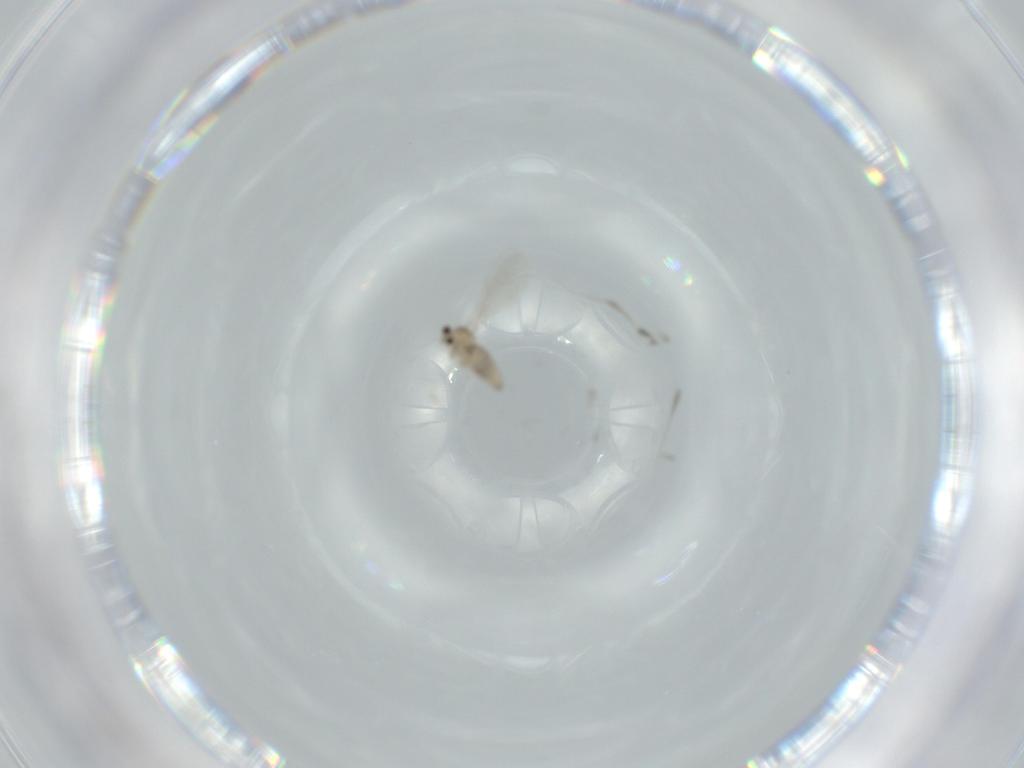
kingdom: Animalia
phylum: Arthropoda
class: Insecta
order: Diptera
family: Cecidomyiidae
